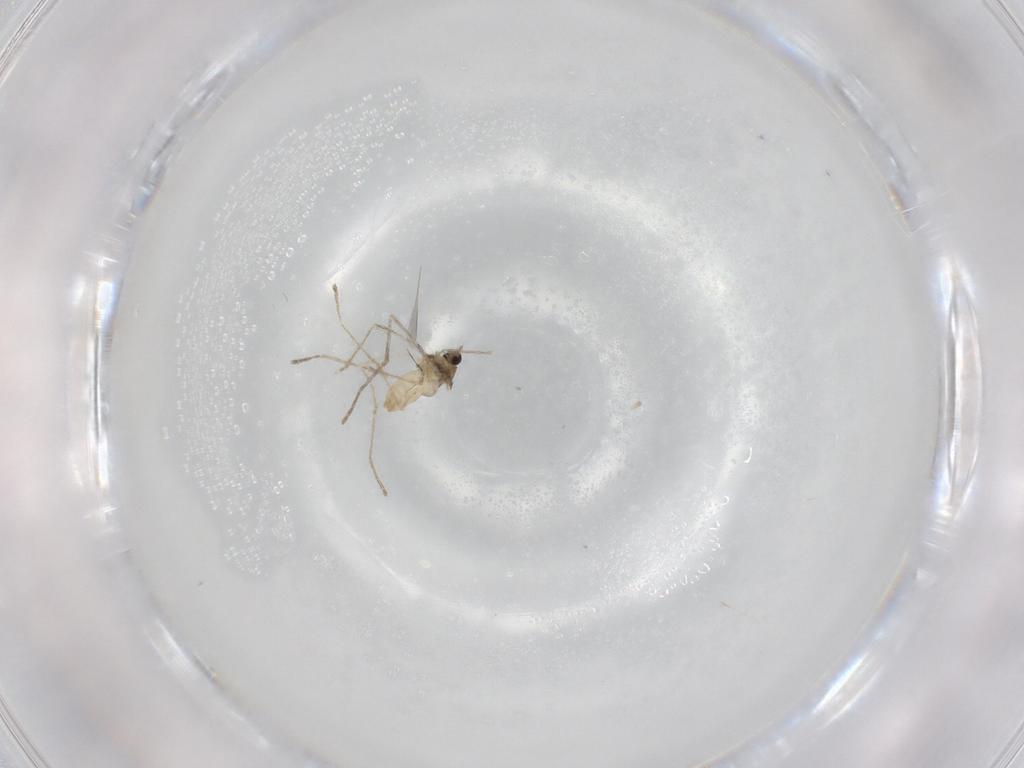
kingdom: Animalia
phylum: Arthropoda
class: Insecta
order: Diptera
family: Cecidomyiidae
